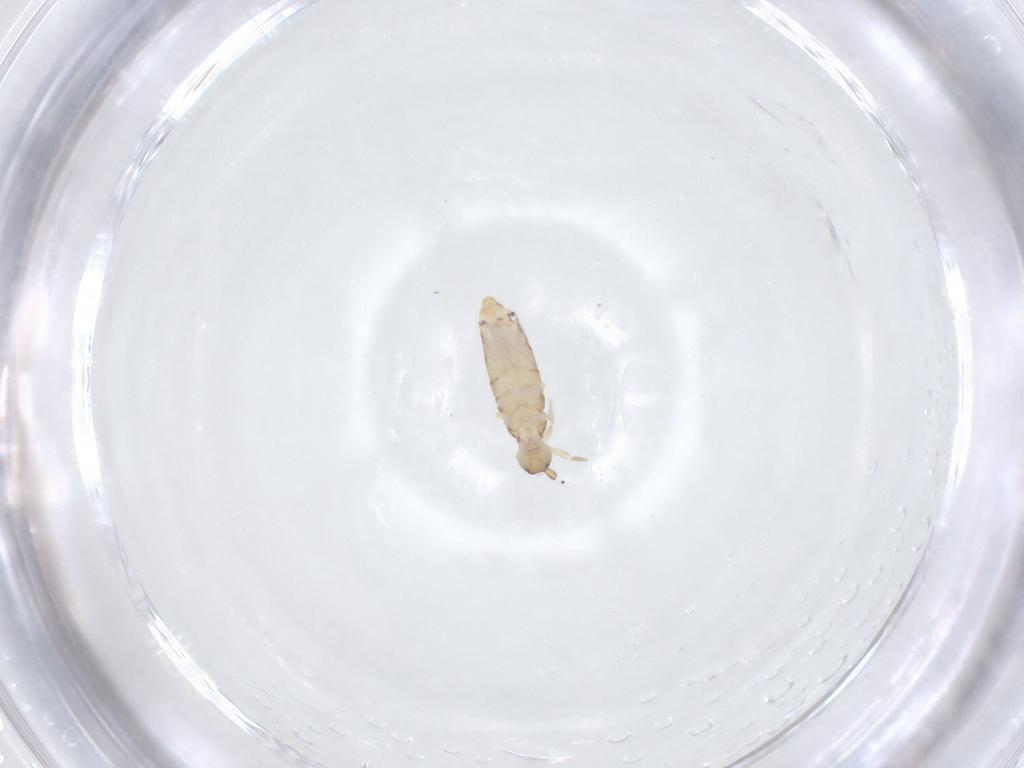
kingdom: Animalia
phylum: Arthropoda
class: Collembola
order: Entomobryomorpha
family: Entomobryidae
